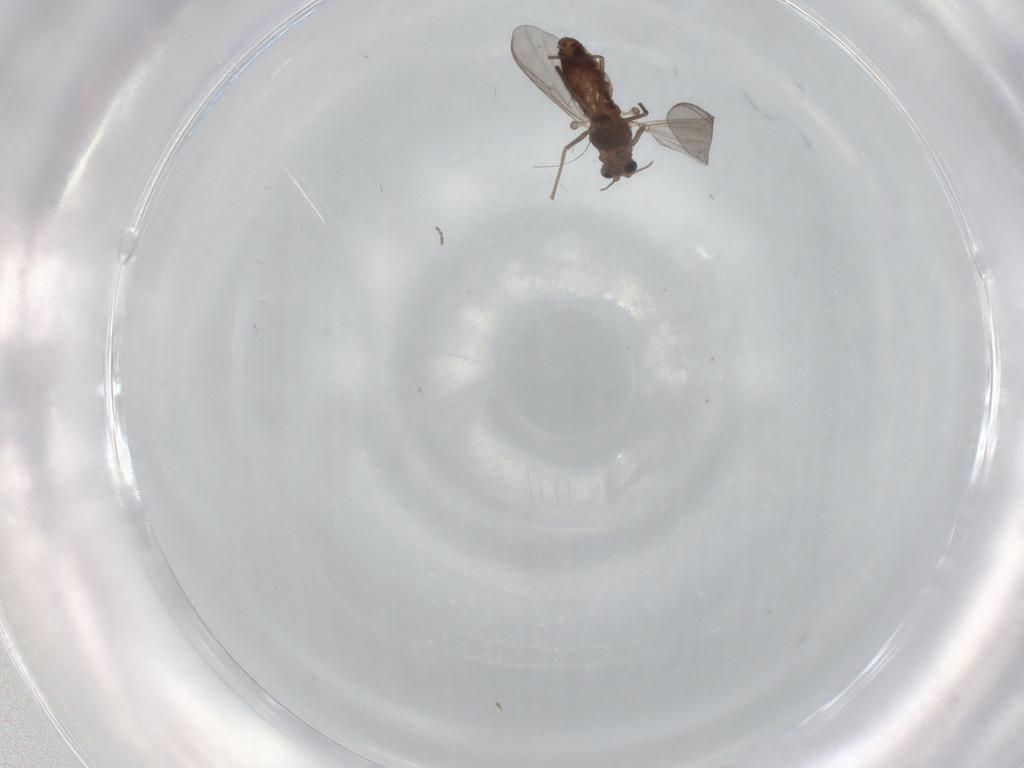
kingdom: Animalia
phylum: Arthropoda
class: Insecta
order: Diptera
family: Chironomidae
